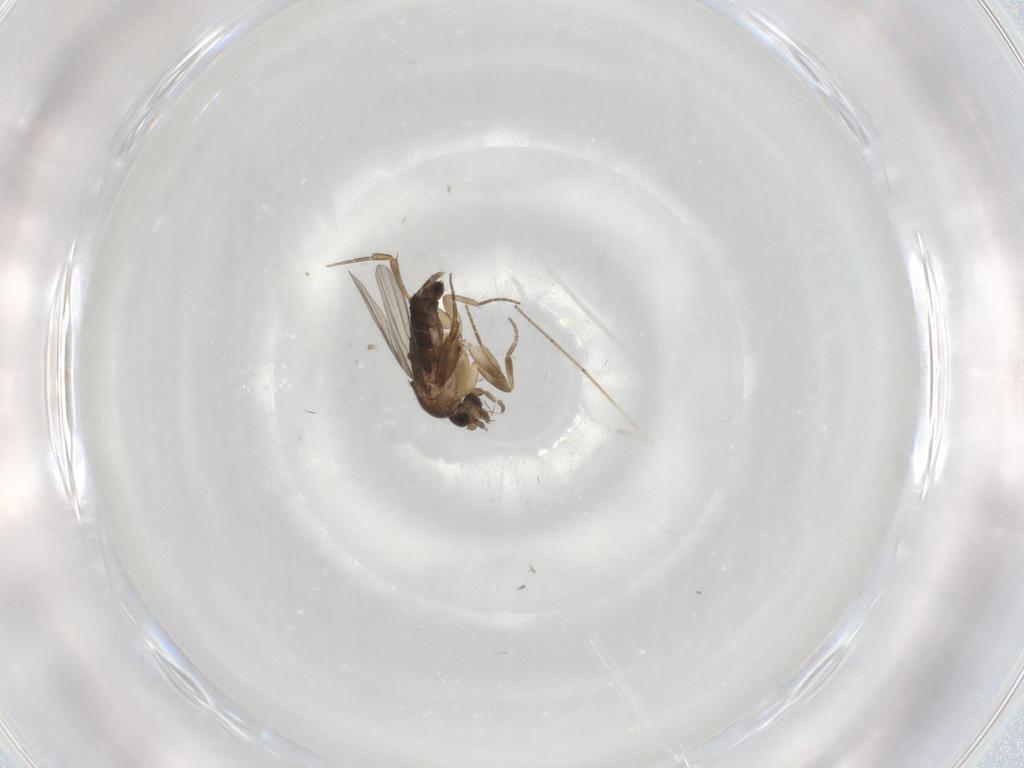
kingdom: Animalia
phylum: Arthropoda
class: Insecta
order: Diptera
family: Phoridae
